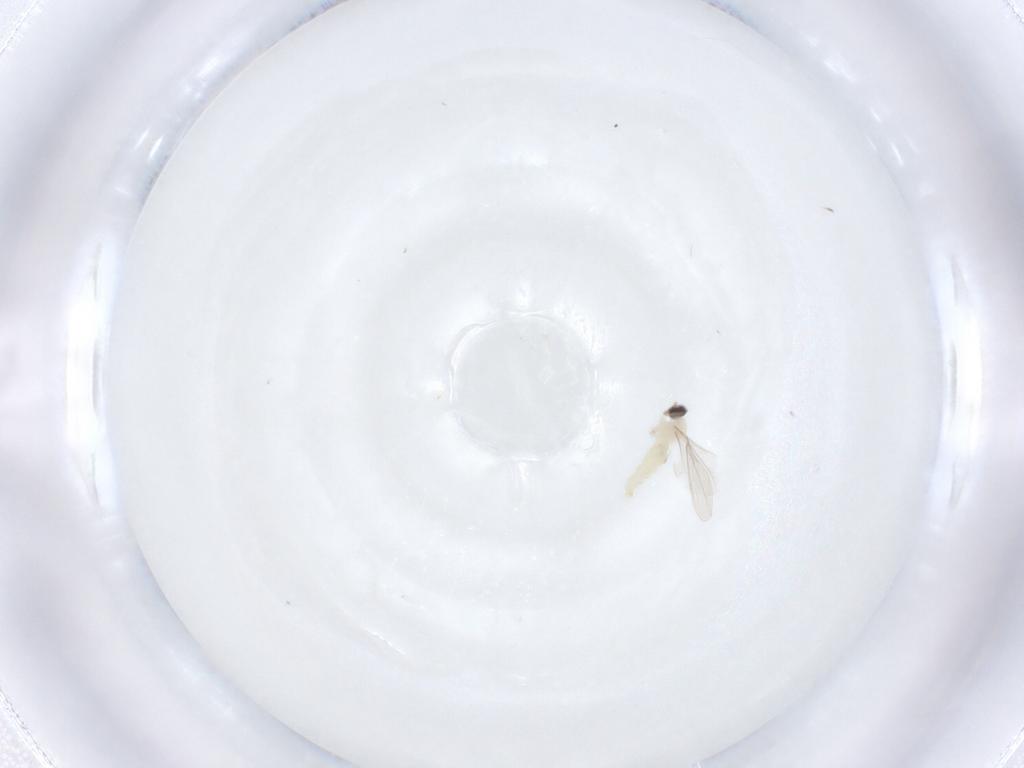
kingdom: Animalia
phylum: Arthropoda
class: Insecta
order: Diptera
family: Cecidomyiidae
